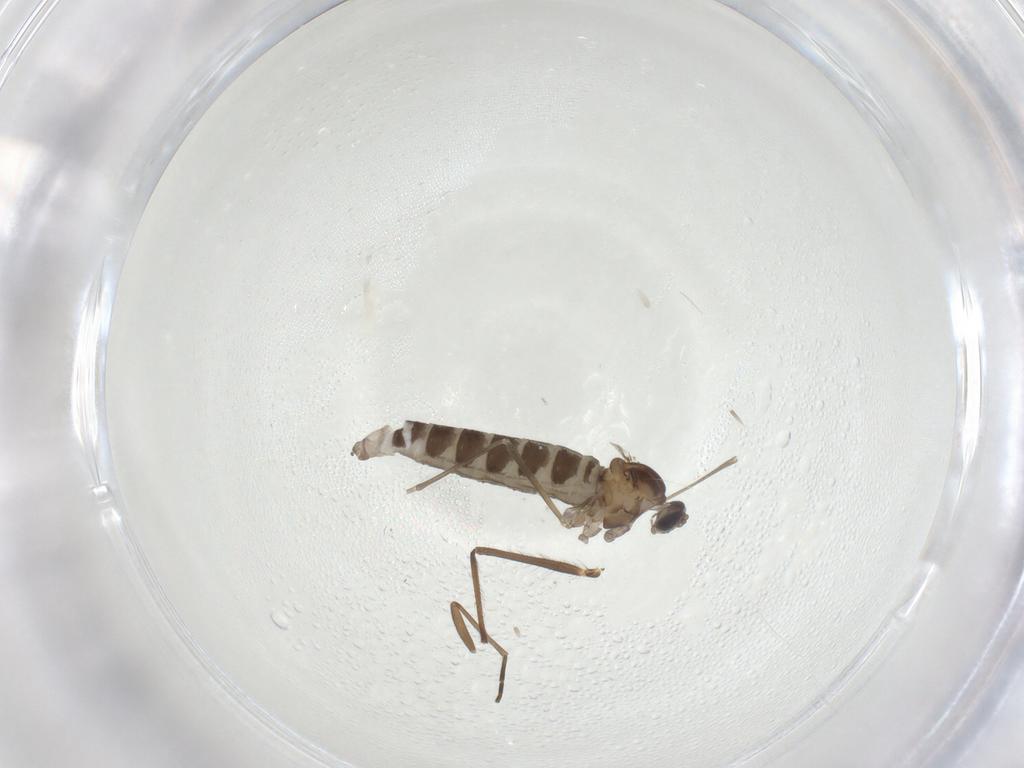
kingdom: Animalia
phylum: Arthropoda
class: Insecta
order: Diptera
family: Cecidomyiidae
